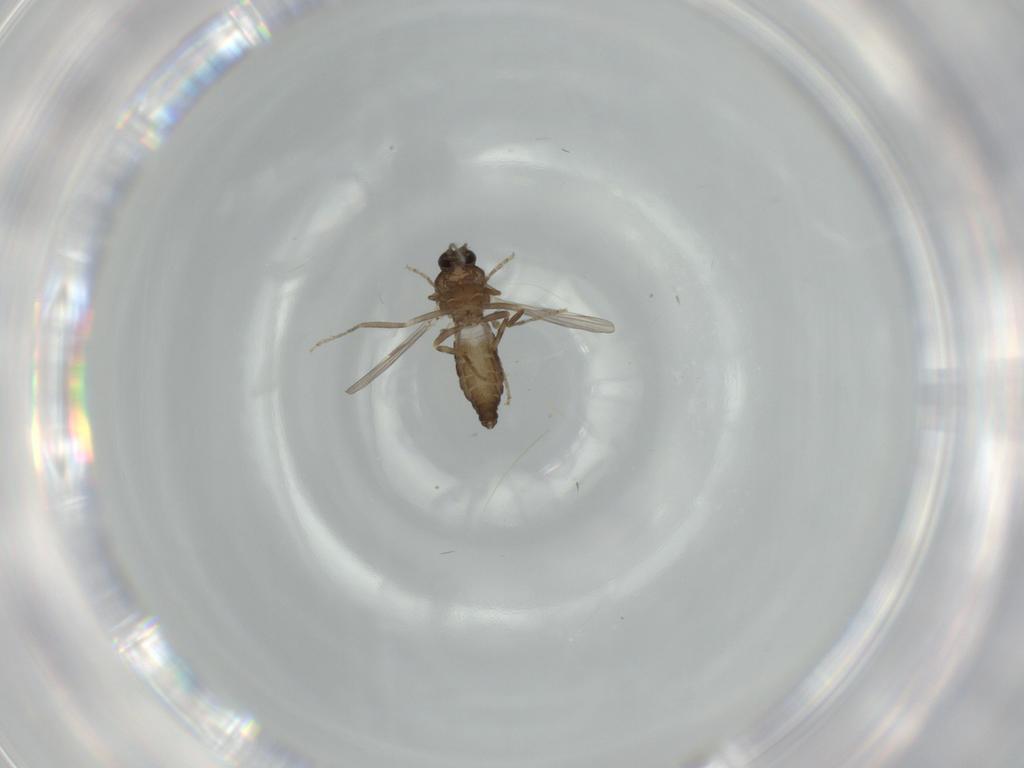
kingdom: Animalia
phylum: Arthropoda
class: Insecta
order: Diptera
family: Ceratopogonidae
